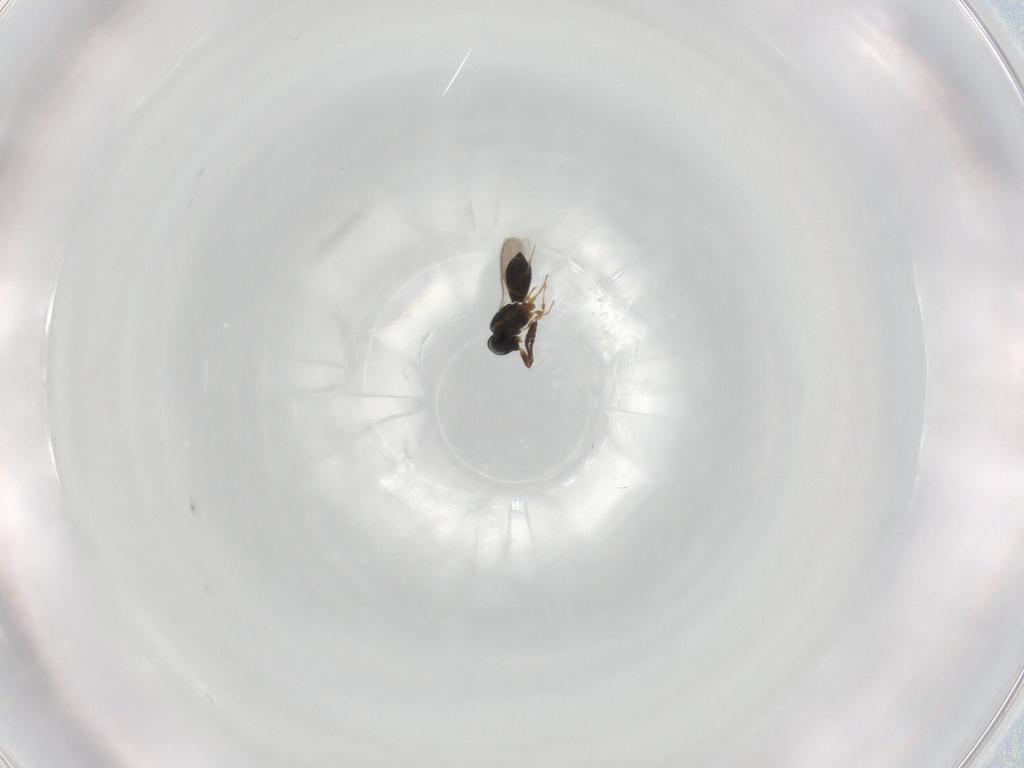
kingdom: Animalia
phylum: Arthropoda
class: Insecta
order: Hymenoptera
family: Scelionidae
